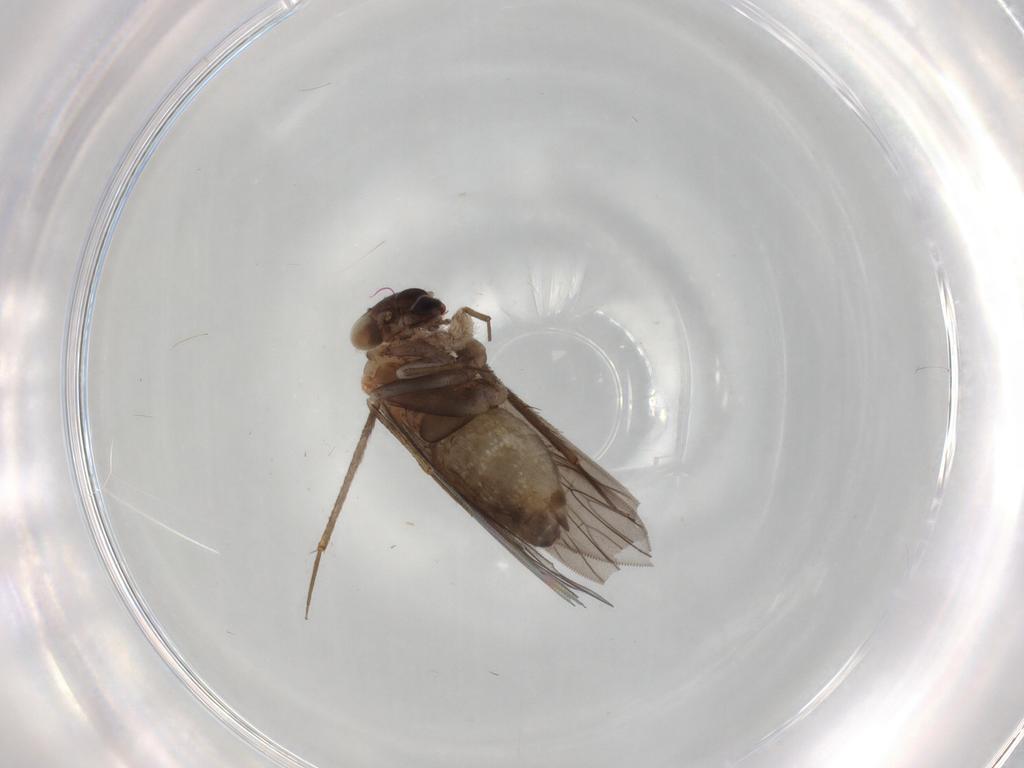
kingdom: Animalia
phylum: Arthropoda
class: Insecta
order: Psocodea
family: Lepidopsocidae
